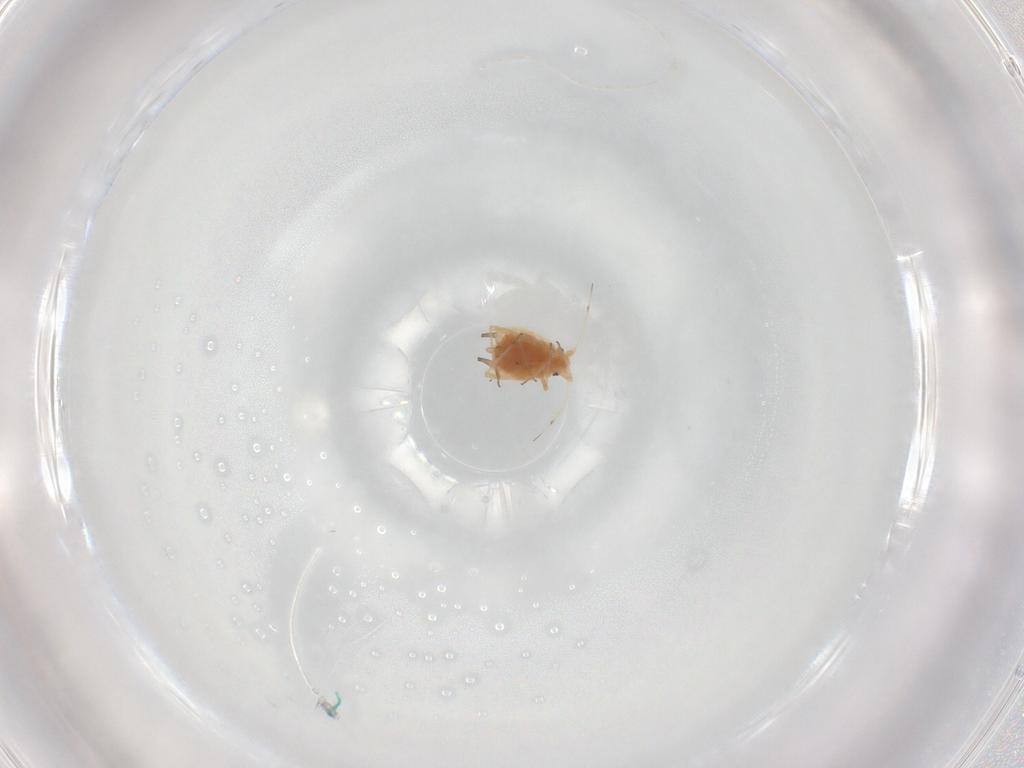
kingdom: Animalia
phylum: Arthropoda
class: Insecta
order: Hemiptera
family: Aphididae
